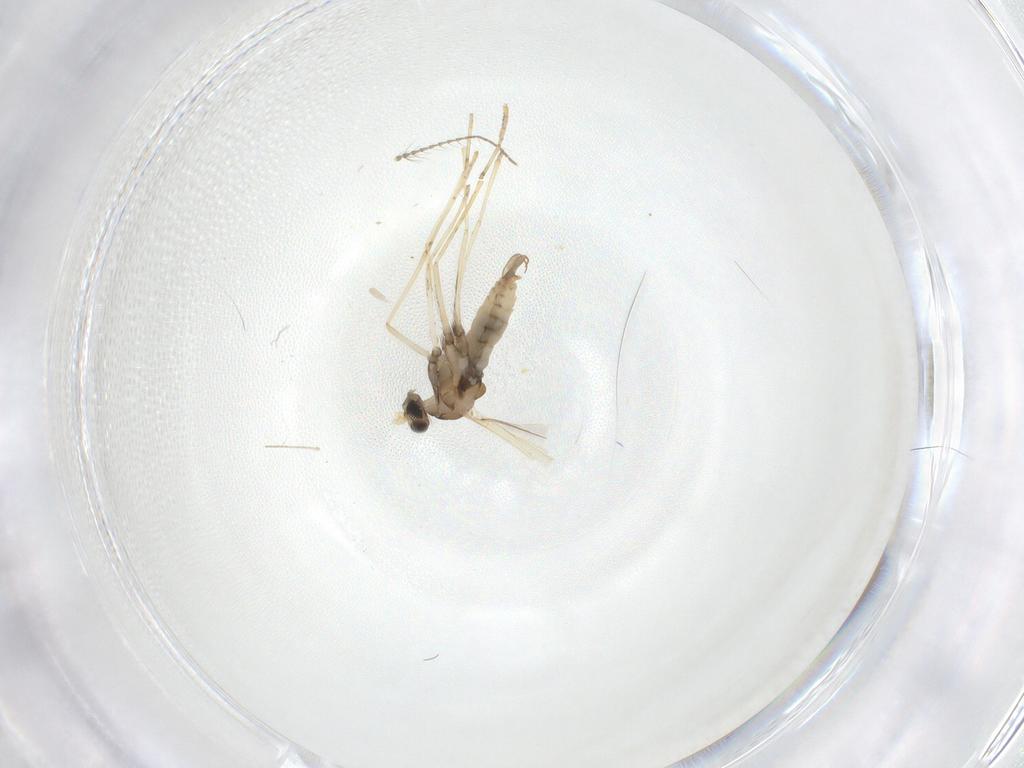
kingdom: Animalia
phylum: Arthropoda
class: Insecta
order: Diptera
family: Cecidomyiidae
